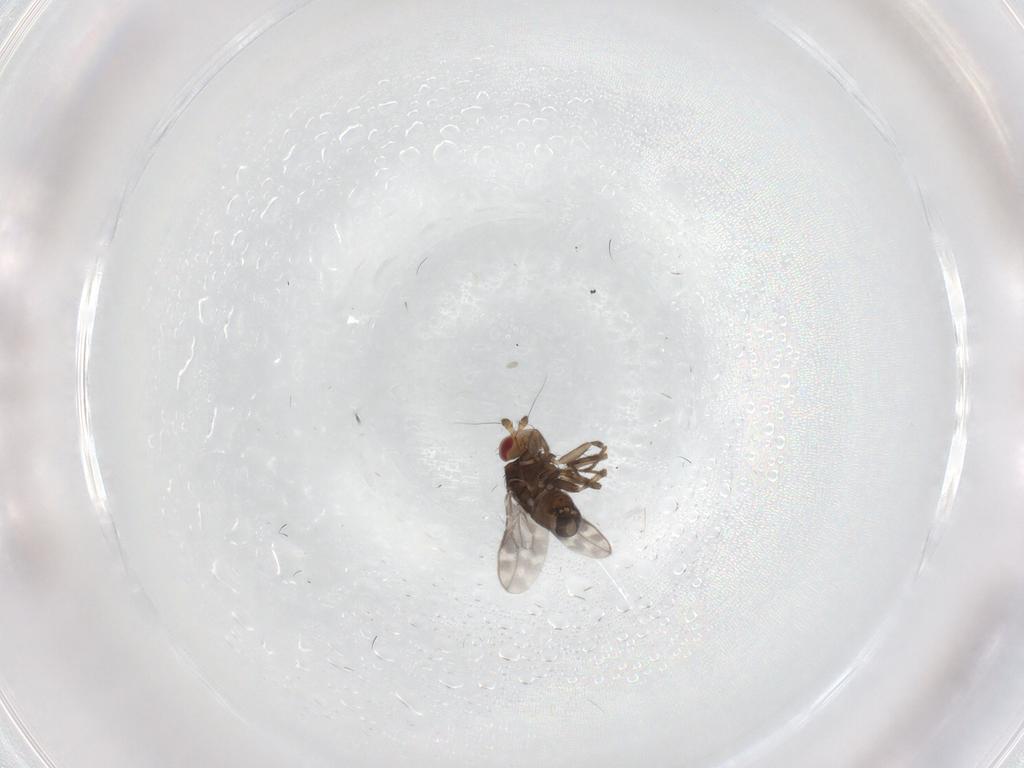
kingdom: Animalia
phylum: Arthropoda
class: Insecta
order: Diptera
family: Sphaeroceridae
